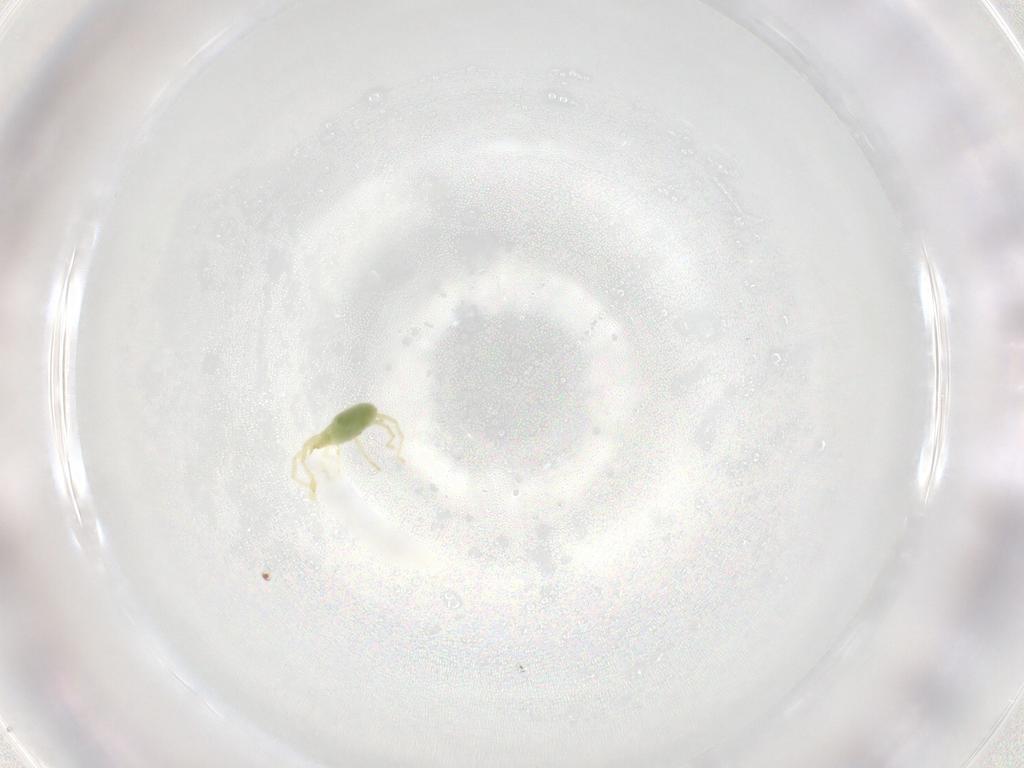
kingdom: Animalia
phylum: Arthropoda
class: Arachnida
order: Trombidiformes
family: Erythraeidae
